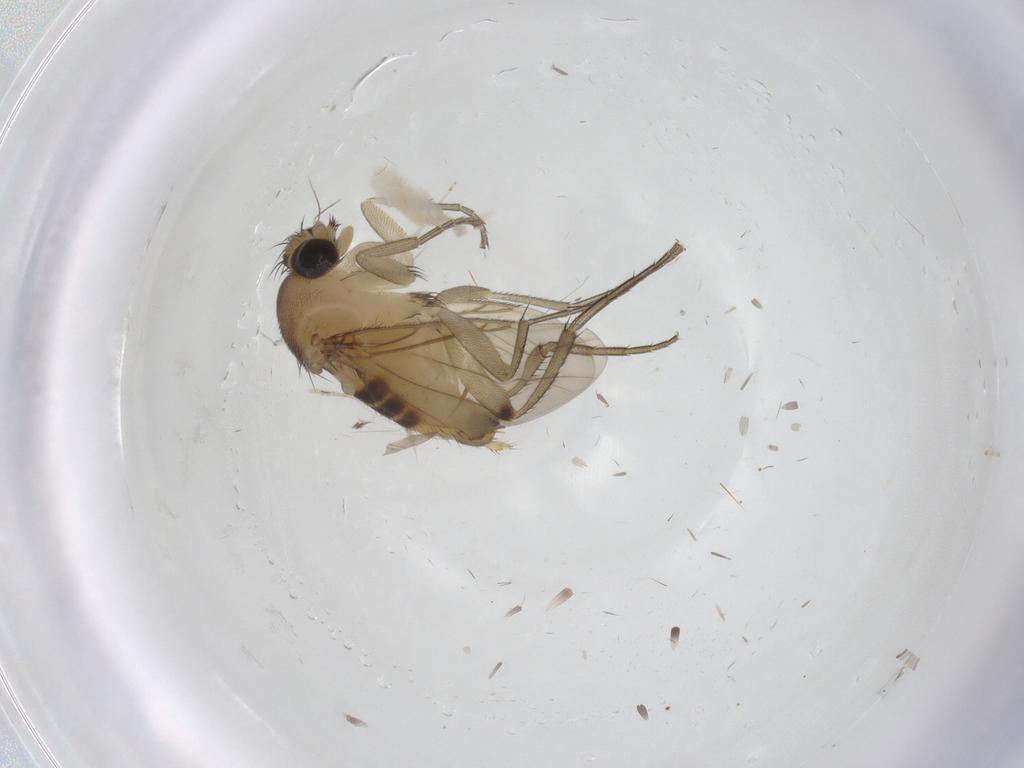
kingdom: Animalia
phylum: Arthropoda
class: Insecta
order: Diptera
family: Phoridae
